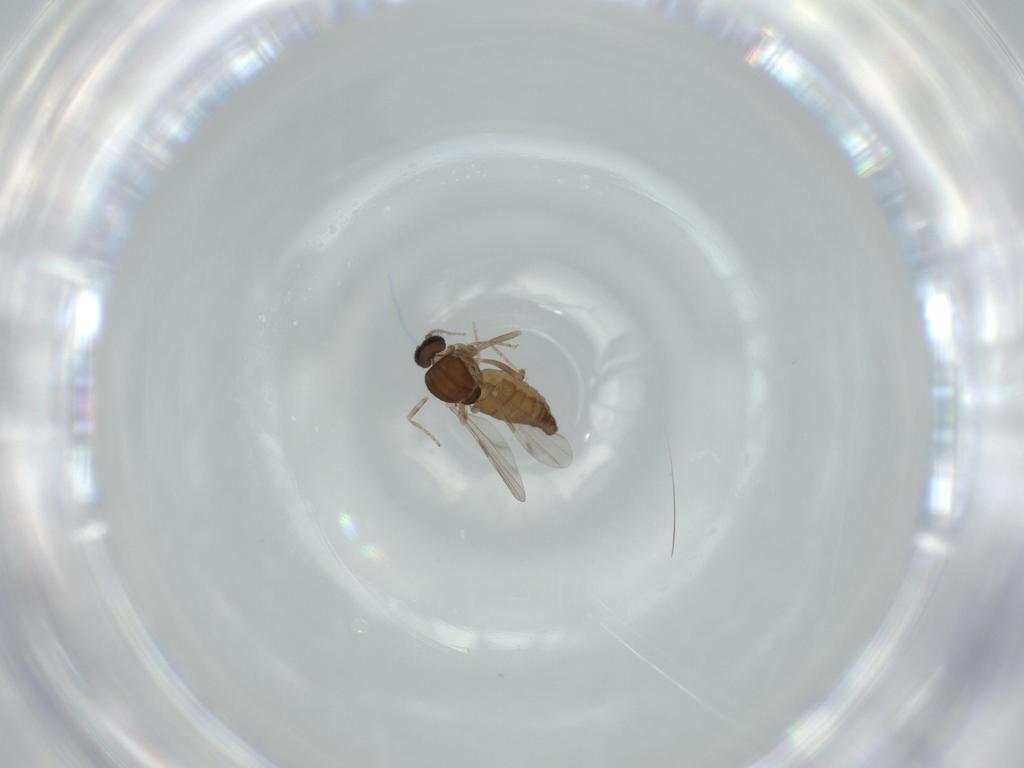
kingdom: Animalia
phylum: Arthropoda
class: Insecta
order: Diptera
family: Ceratopogonidae
